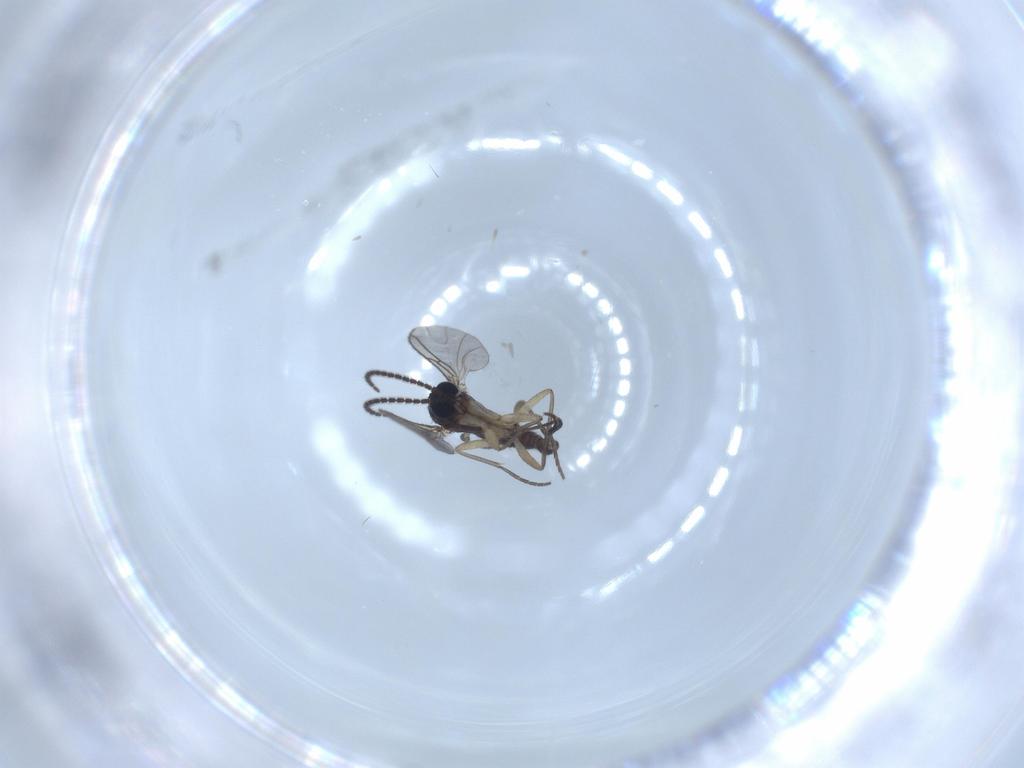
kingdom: Animalia
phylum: Arthropoda
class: Insecta
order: Diptera
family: Sciaridae
